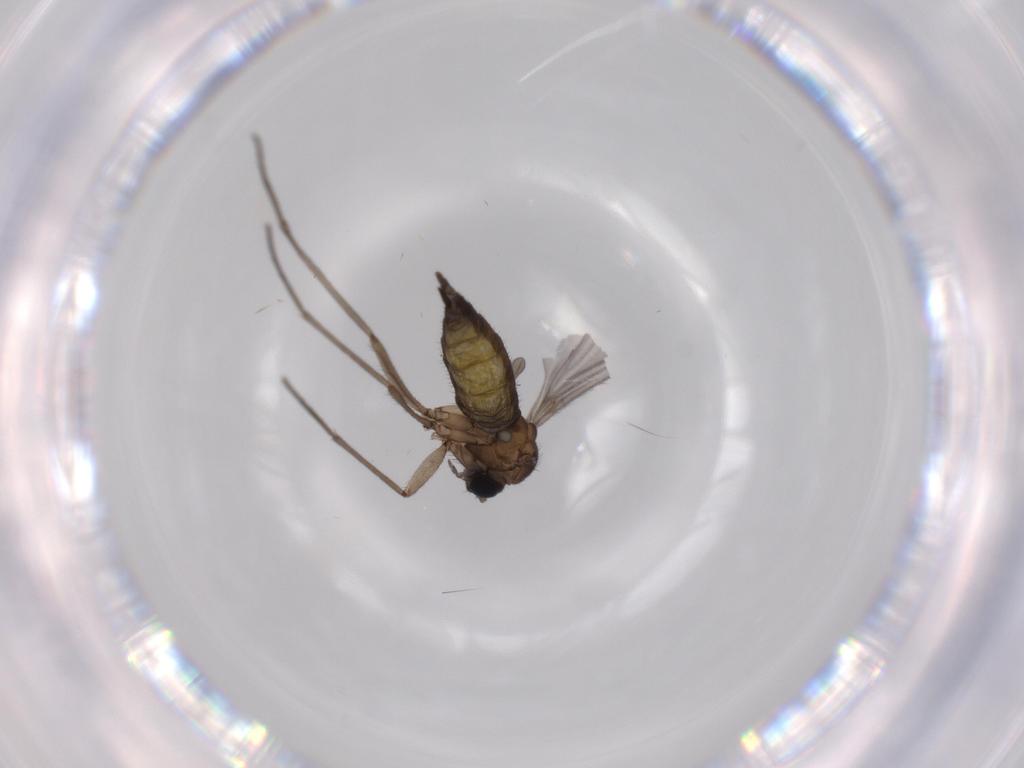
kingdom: Animalia
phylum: Arthropoda
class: Insecta
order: Diptera
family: Sciaridae
